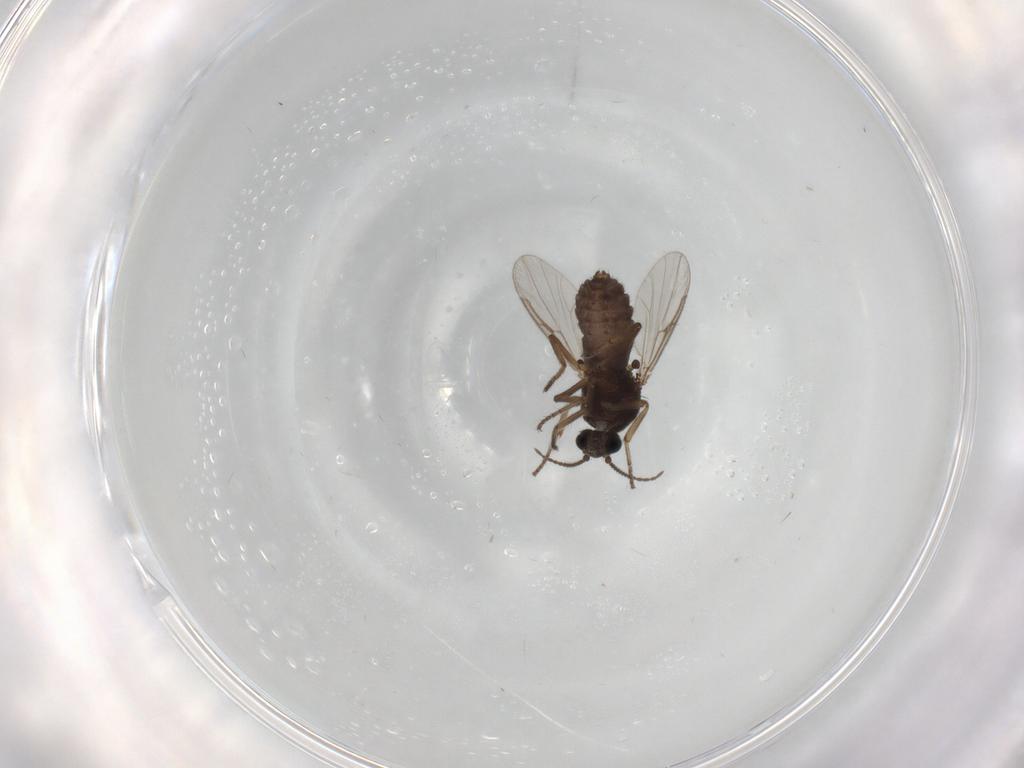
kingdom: Animalia
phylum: Arthropoda
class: Insecta
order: Diptera
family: Ceratopogonidae
